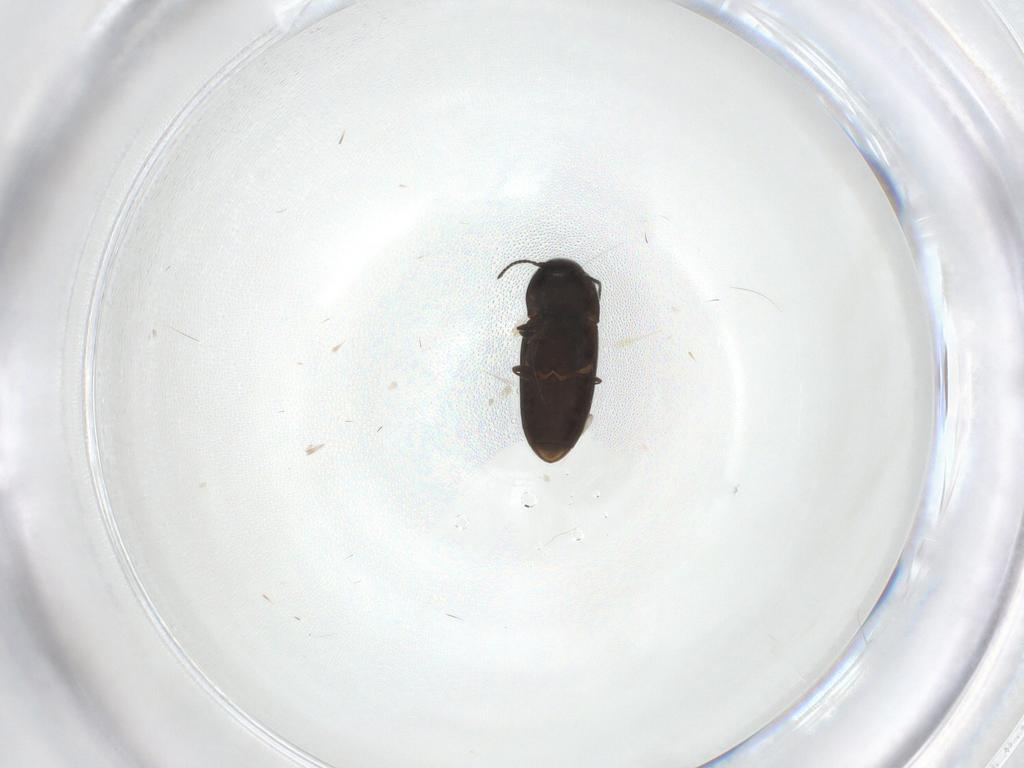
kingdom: Animalia
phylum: Arthropoda
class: Insecta
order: Coleoptera
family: Elateridae
